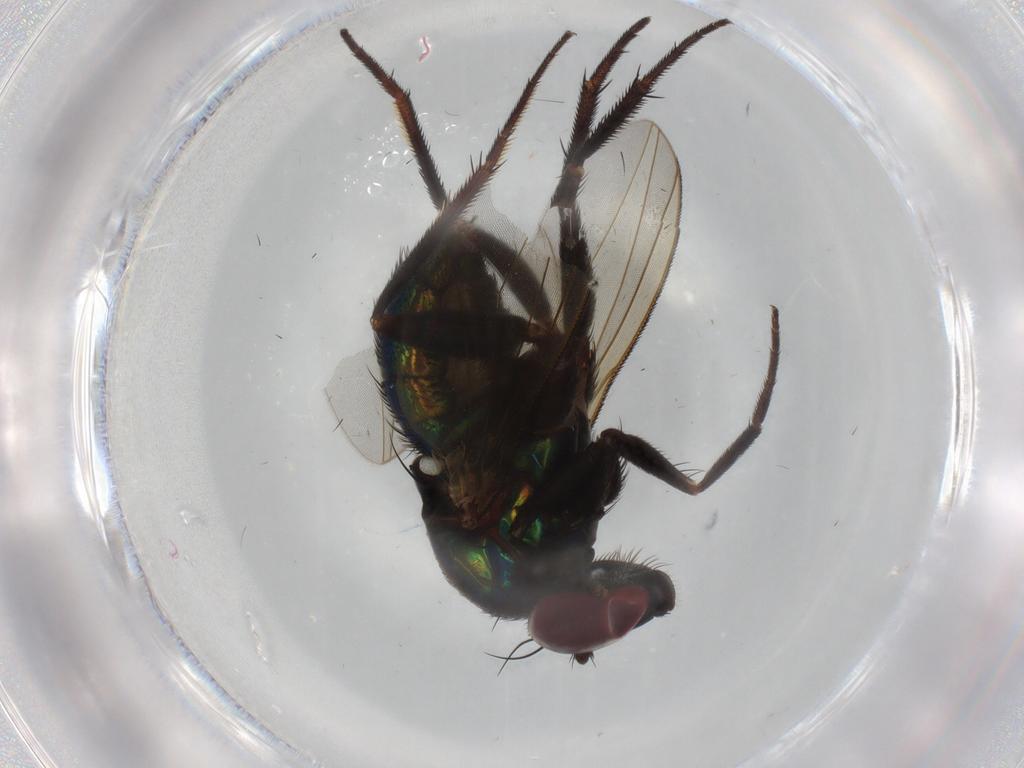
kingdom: Animalia
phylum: Arthropoda
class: Insecta
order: Diptera
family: Dolichopodidae
